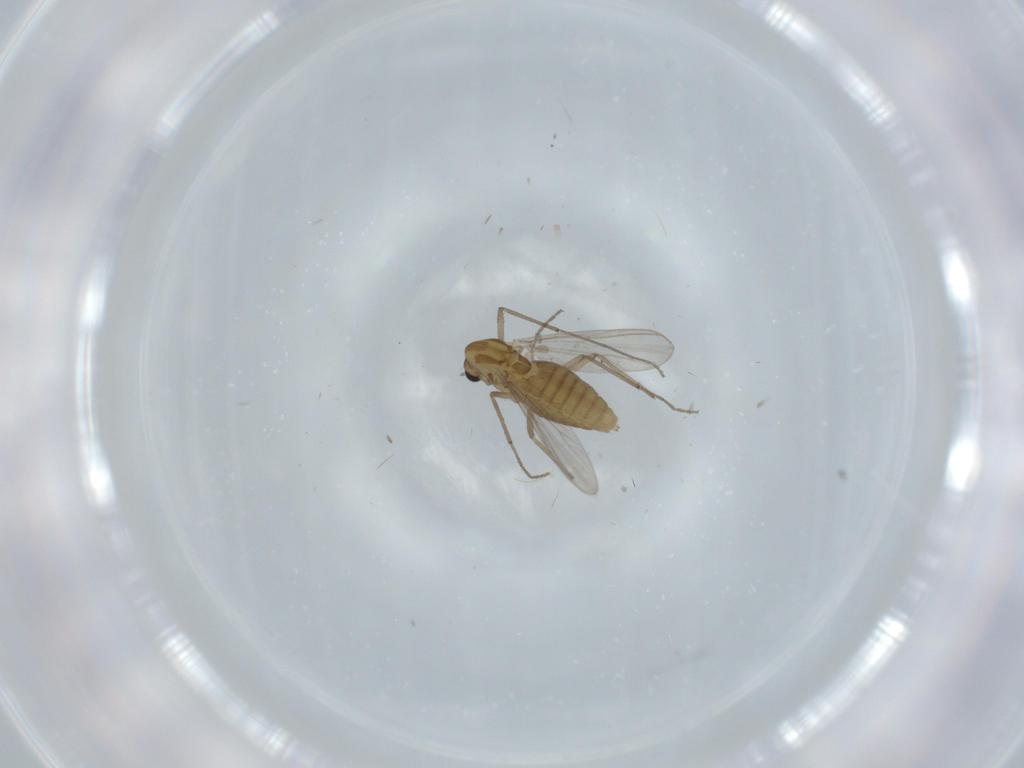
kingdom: Animalia
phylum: Arthropoda
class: Insecta
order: Diptera
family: Chironomidae
